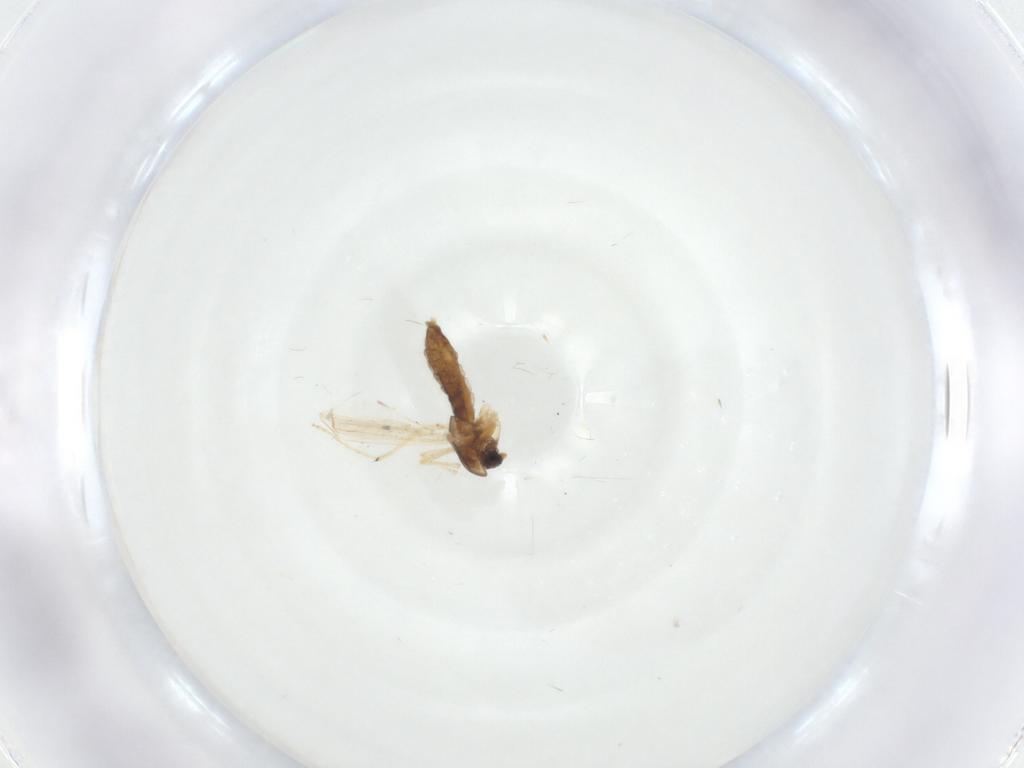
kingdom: Animalia
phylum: Arthropoda
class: Insecta
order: Diptera
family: Chironomidae
